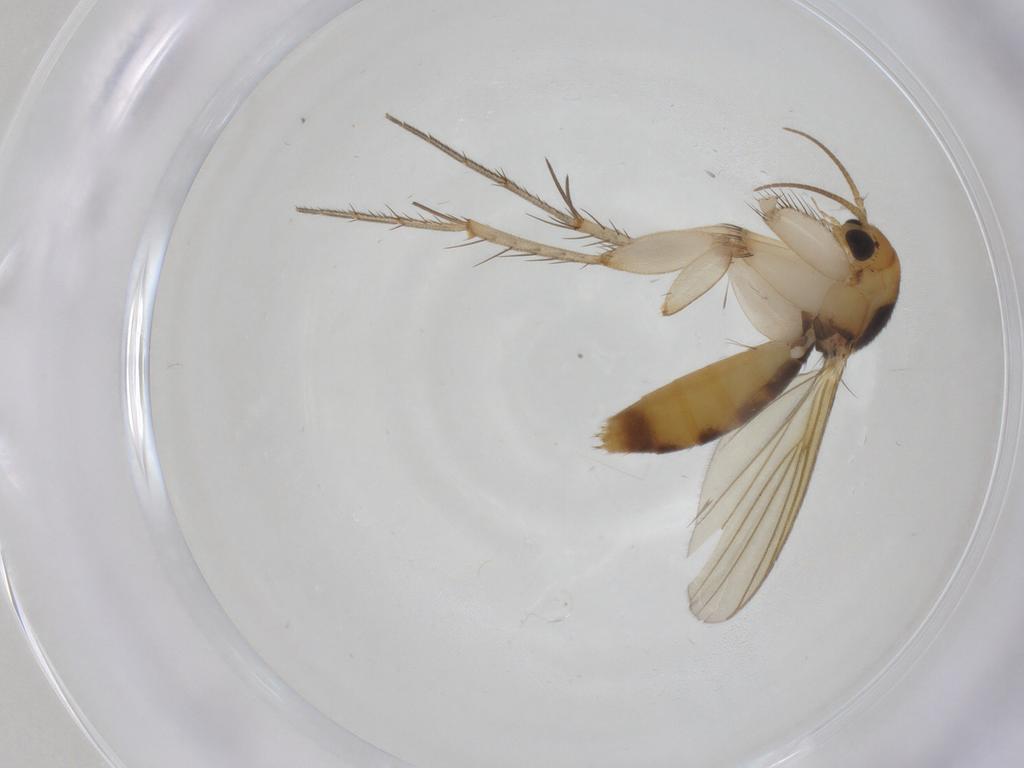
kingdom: Animalia
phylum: Arthropoda
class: Insecta
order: Diptera
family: Mycetophilidae
